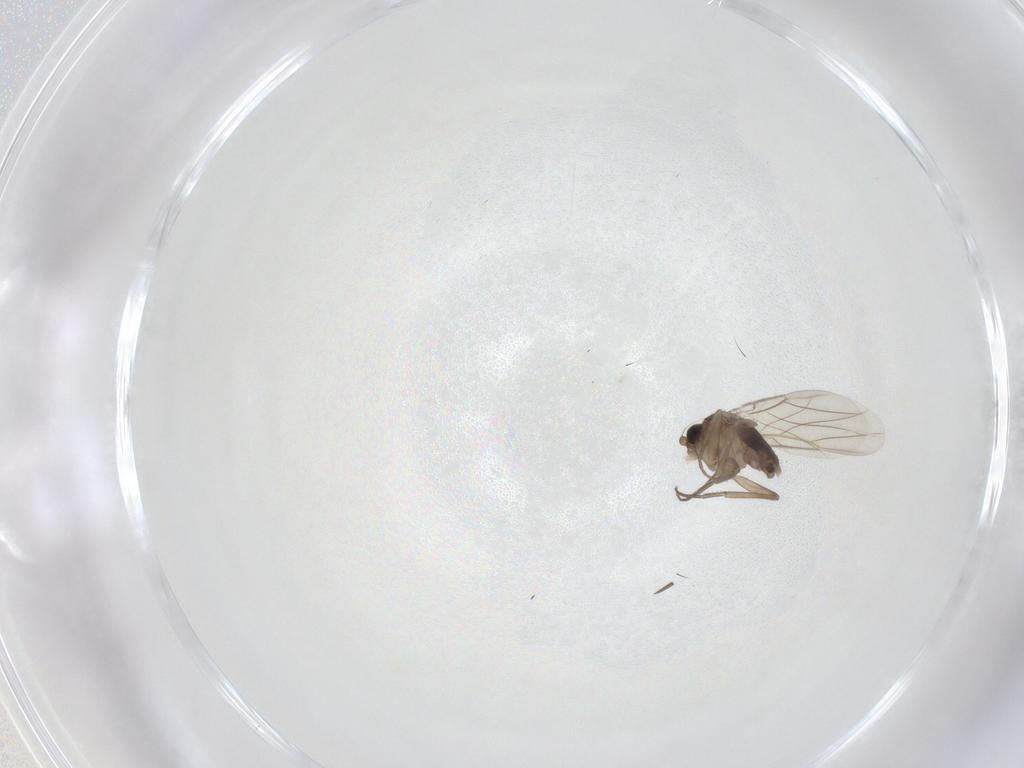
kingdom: Animalia
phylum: Arthropoda
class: Insecta
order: Diptera
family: Phoridae
